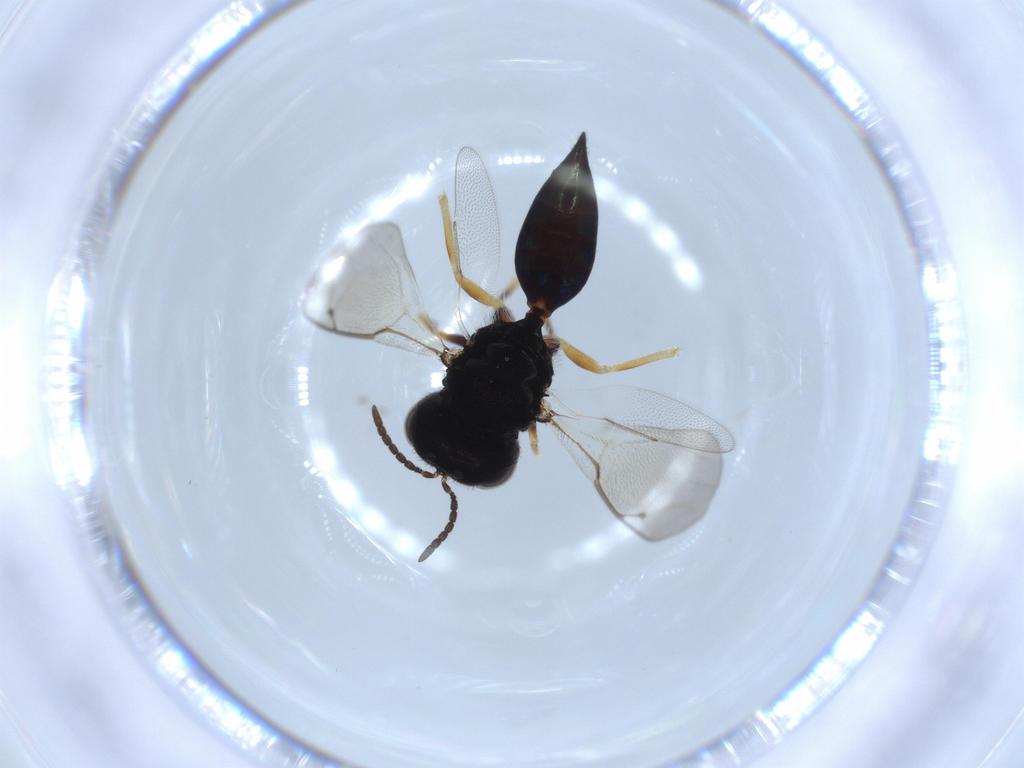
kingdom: Animalia
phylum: Arthropoda
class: Insecta
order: Hymenoptera
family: Pteromalidae
